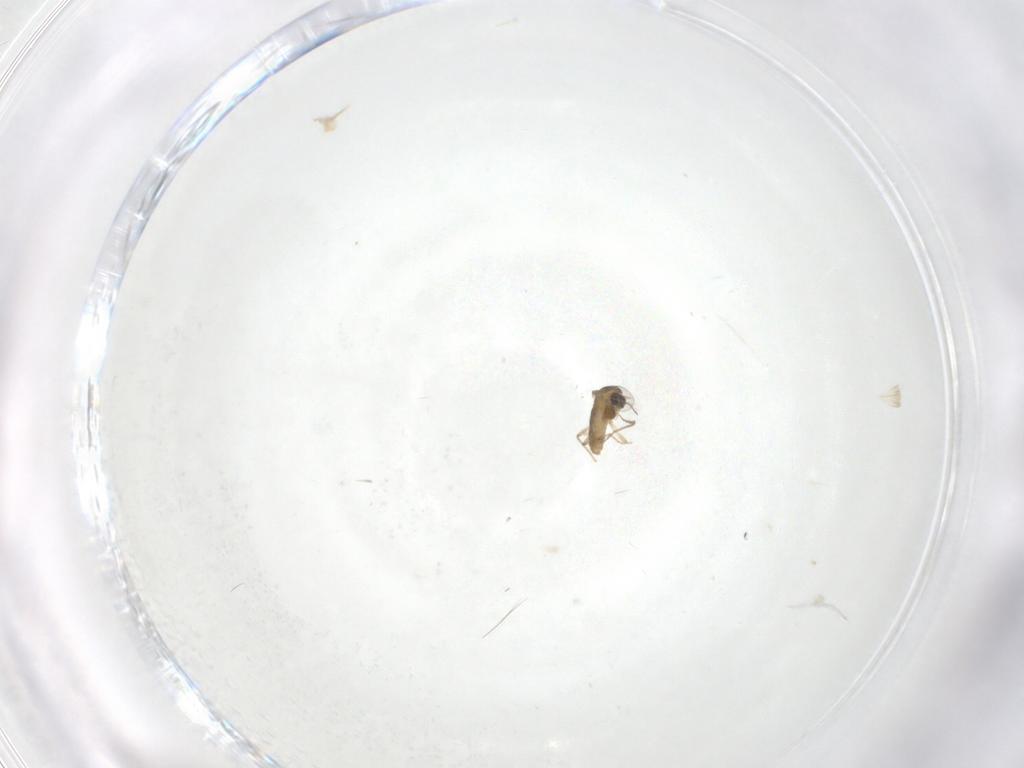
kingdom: Animalia
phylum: Arthropoda
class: Insecta
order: Diptera
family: Chironomidae
